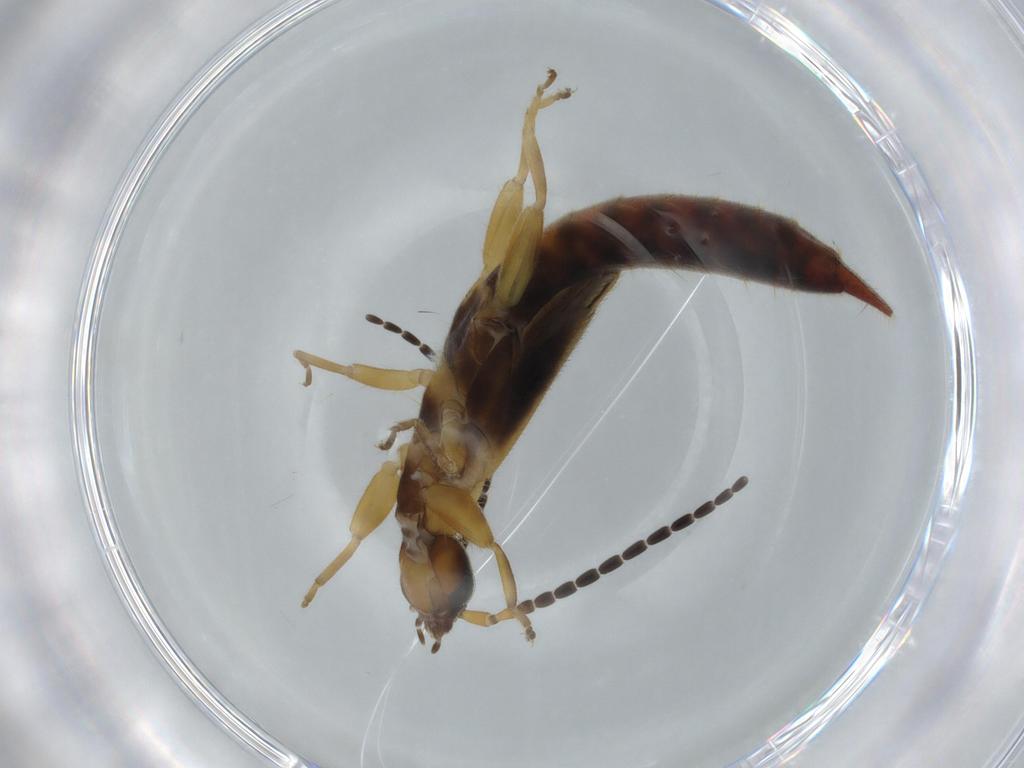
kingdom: Animalia
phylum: Arthropoda
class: Insecta
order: Dermaptera
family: Forficulidae
